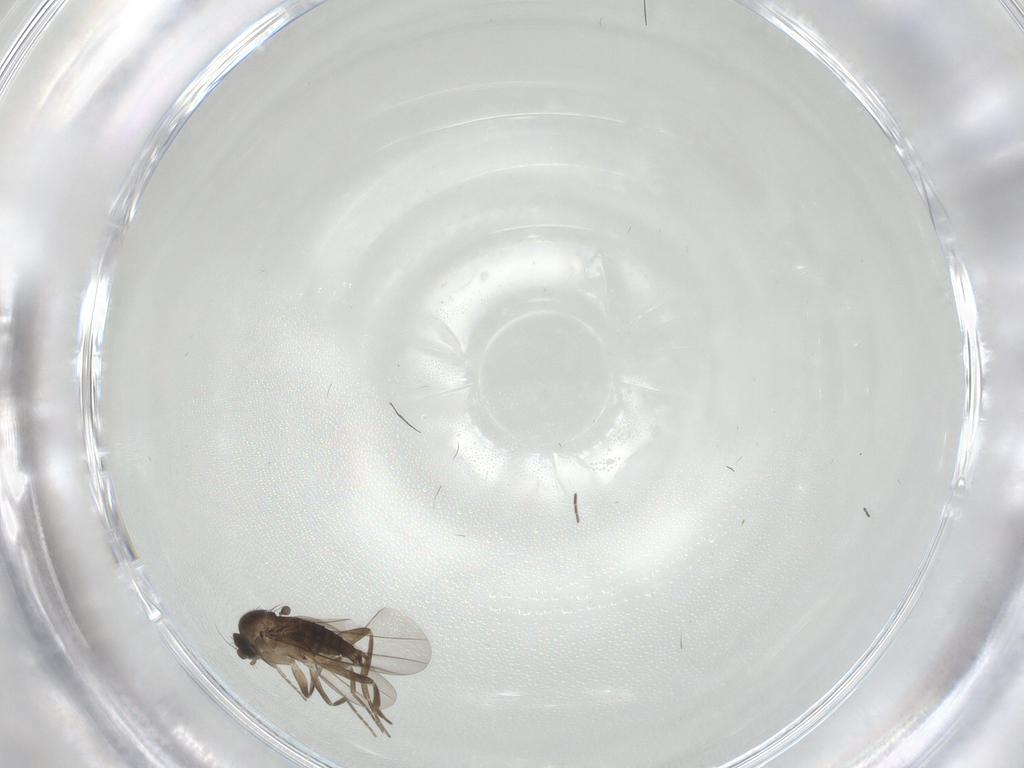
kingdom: Animalia
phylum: Arthropoda
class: Insecta
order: Diptera
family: Phoridae
